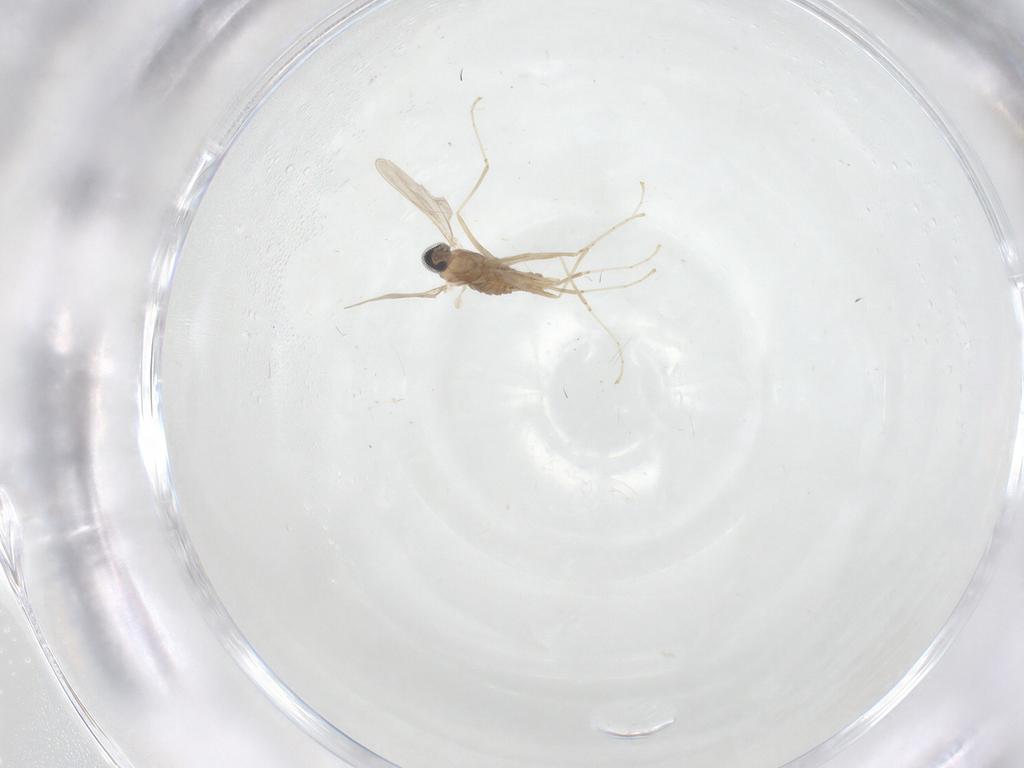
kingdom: Animalia
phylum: Arthropoda
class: Insecta
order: Diptera
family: Cecidomyiidae
